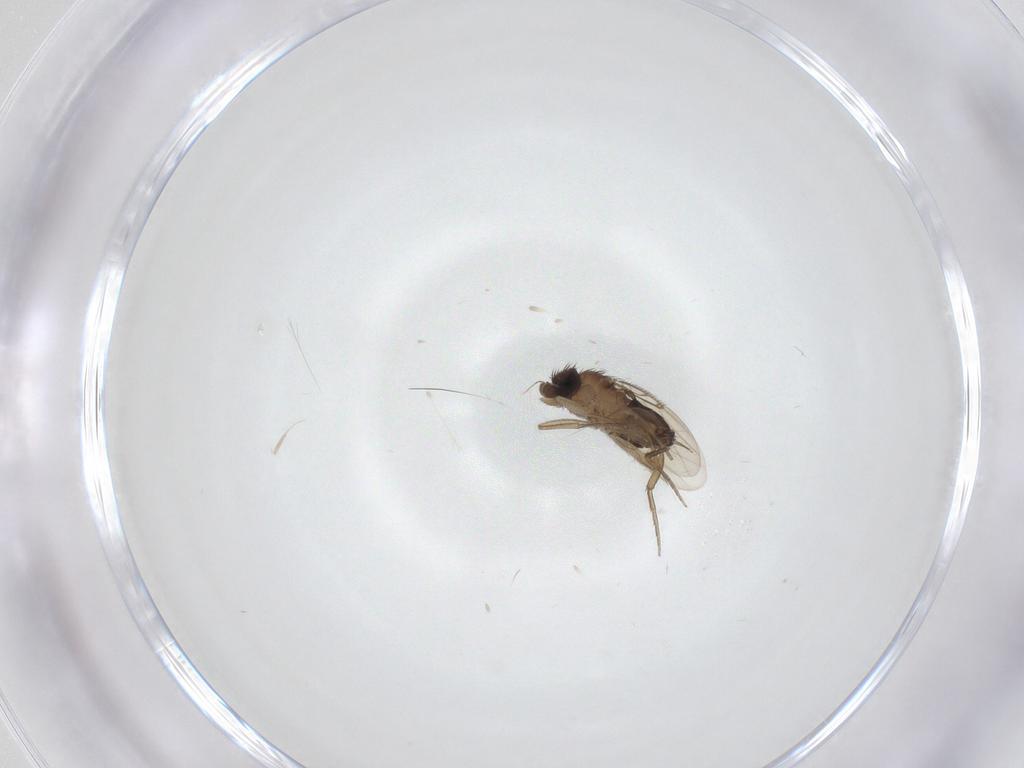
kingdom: Animalia
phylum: Arthropoda
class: Insecta
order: Diptera
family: Phoridae
